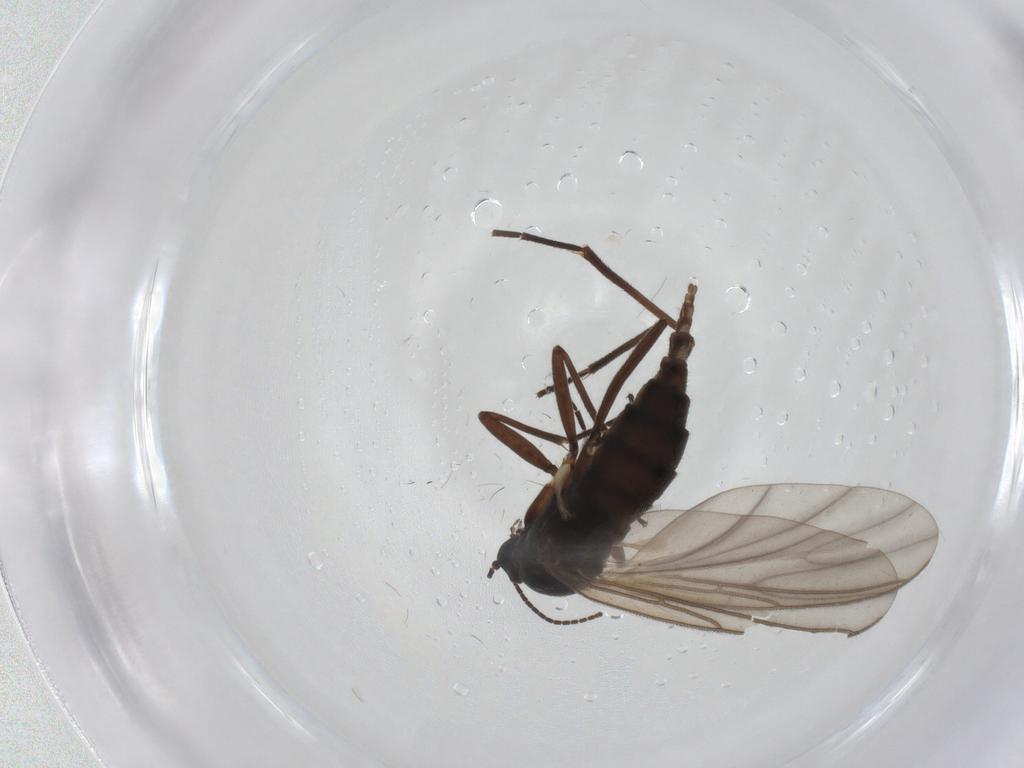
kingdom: Animalia
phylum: Arthropoda
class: Insecta
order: Diptera
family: Sciaridae
